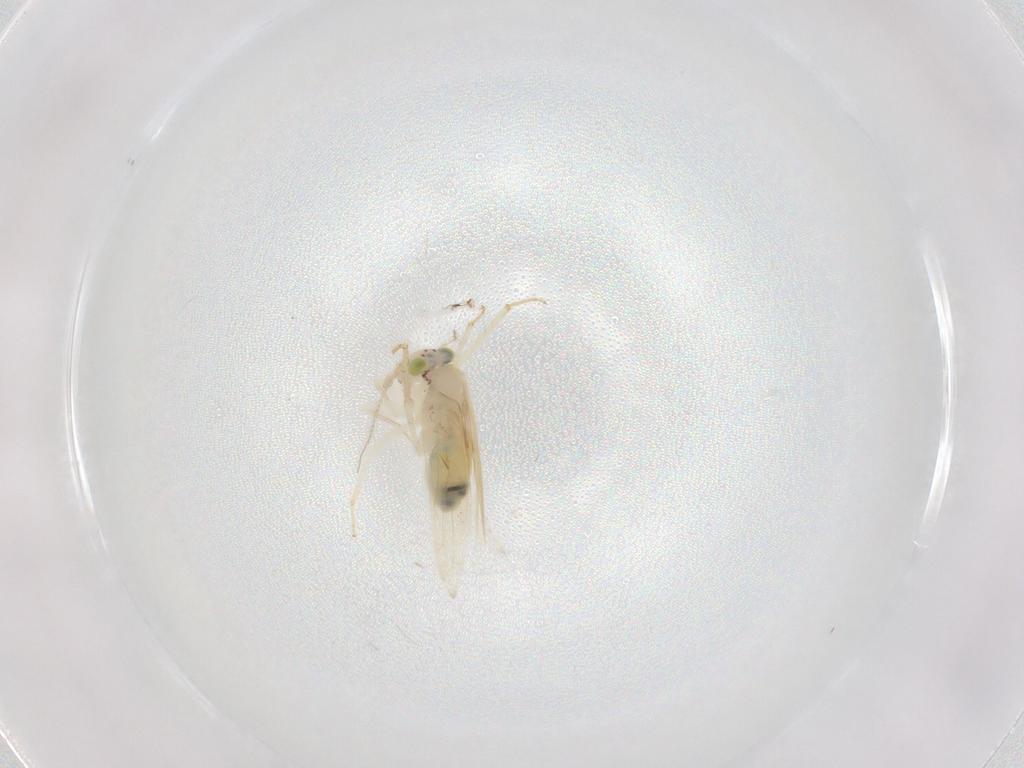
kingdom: Animalia
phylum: Arthropoda
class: Insecta
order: Psocodea
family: Lepidopsocidae
